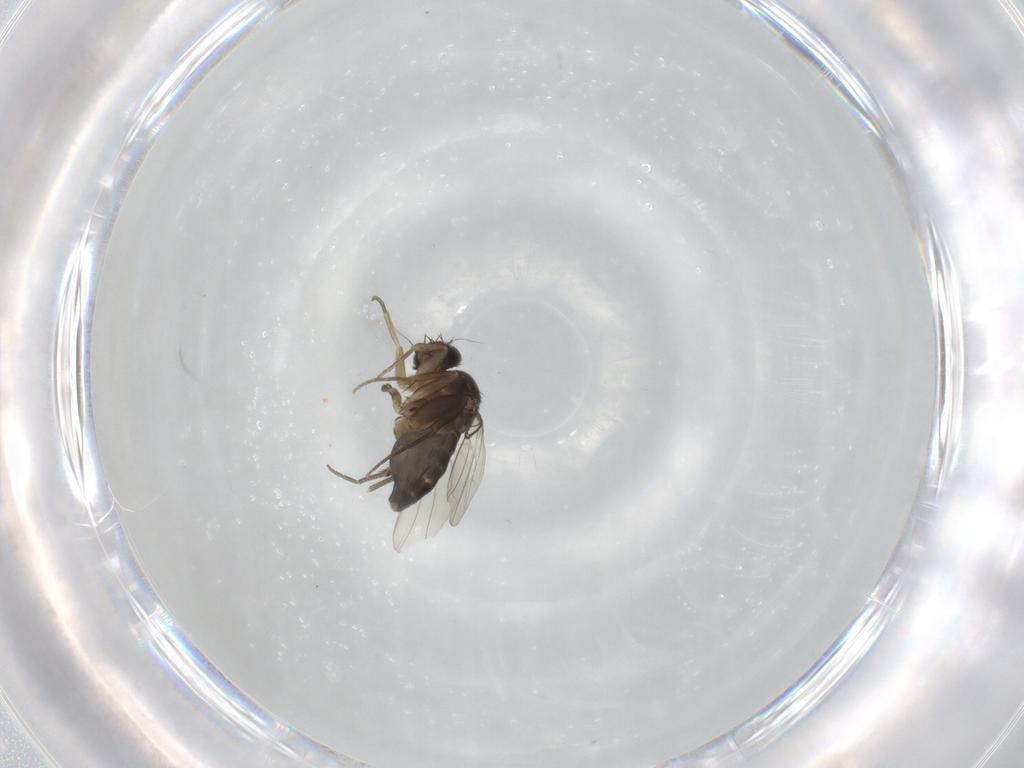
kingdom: Animalia
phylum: Arthropoda
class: Insecta
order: Diptera
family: Phoridae
